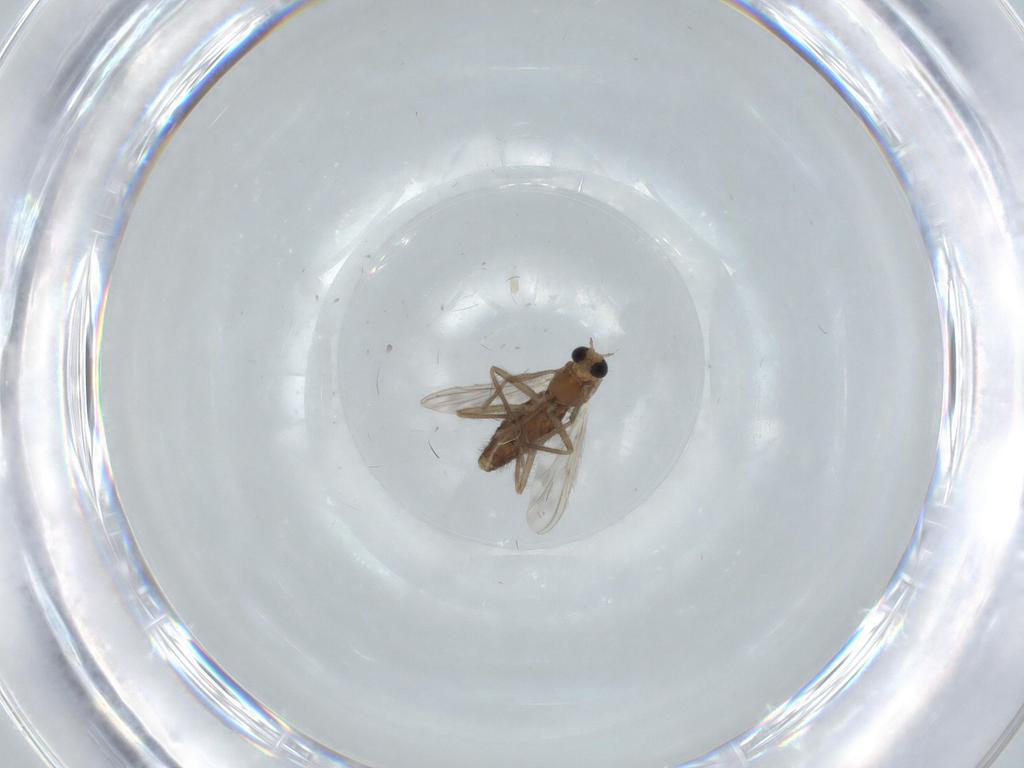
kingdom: Animalia
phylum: Arthropoda
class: Insecta
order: Diptera
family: Chironomidae
